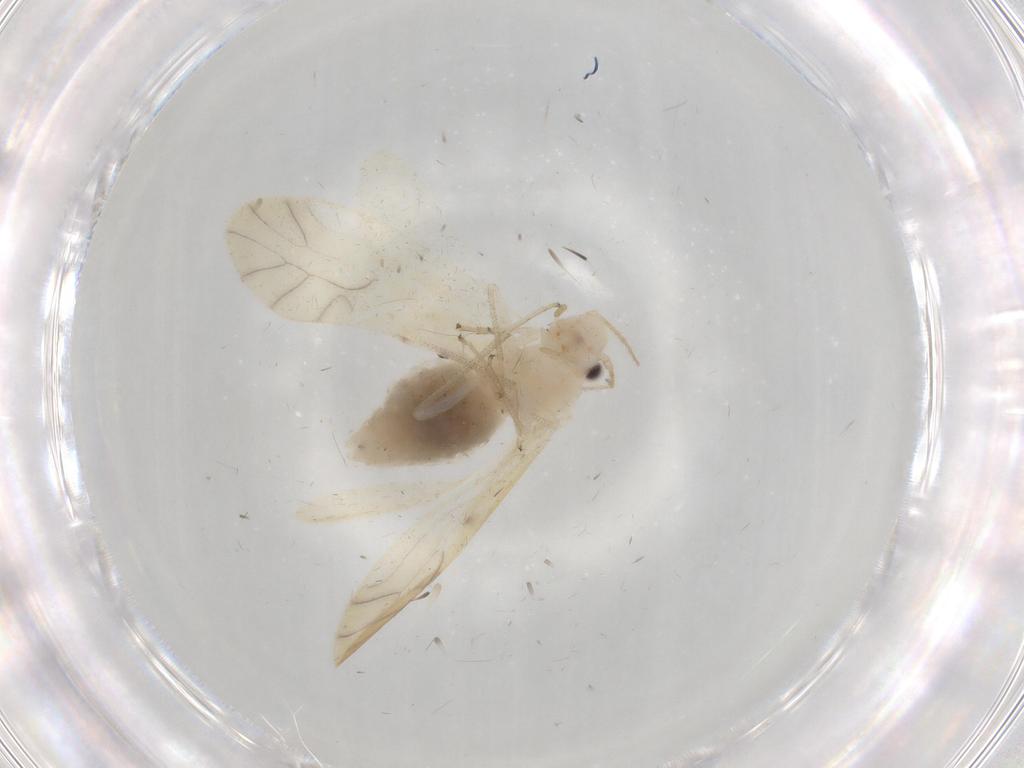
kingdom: Animalia
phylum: Arthropoda
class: Insecta
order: Psocodea
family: Caeciliusidae
